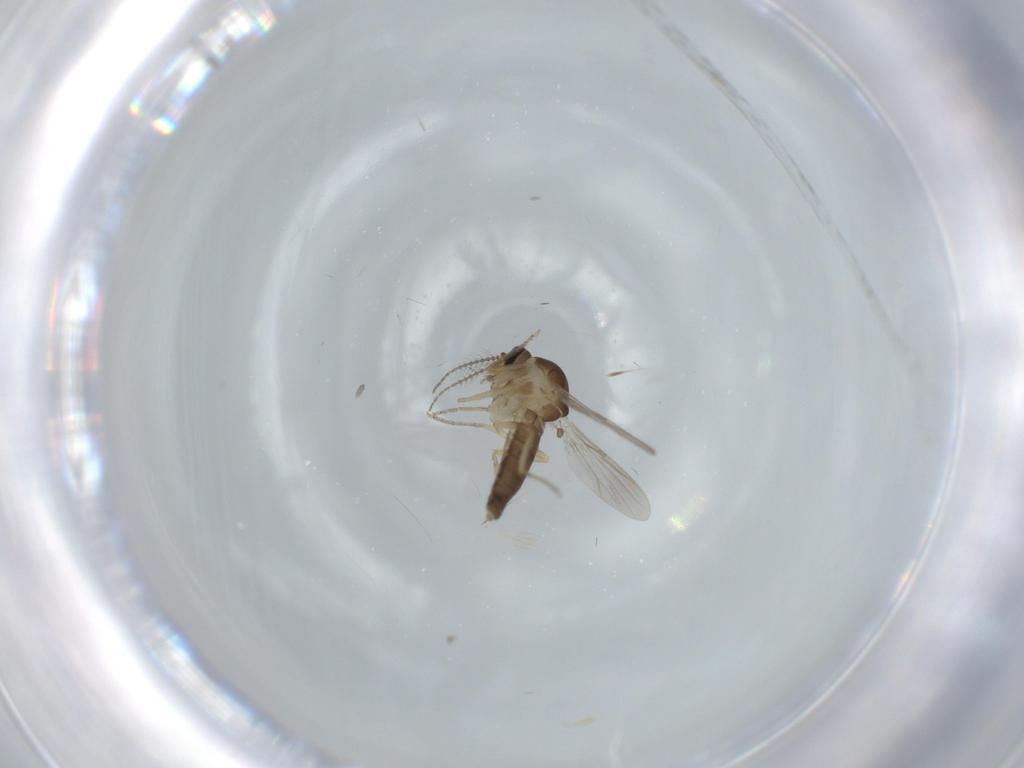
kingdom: Animalia
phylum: Arthropoda
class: Insecta
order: Diptera
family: Ceratopogonidae
